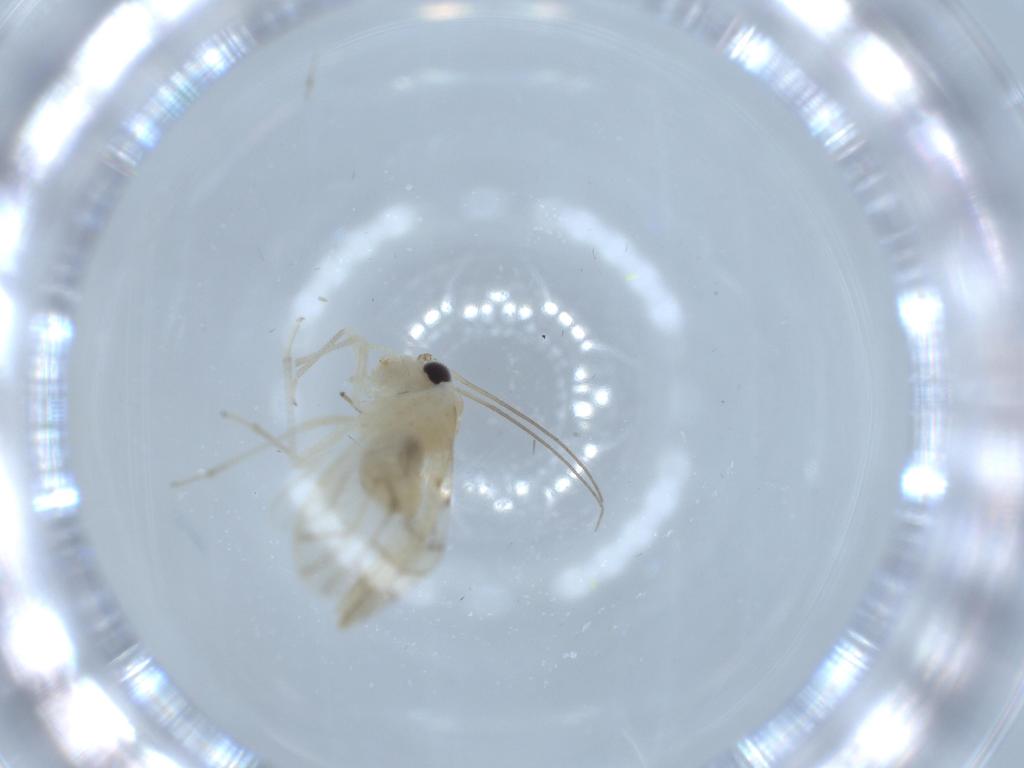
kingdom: Animalia
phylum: Arthropoda
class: Insecta
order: Psocodea
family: Caeciliusidae
